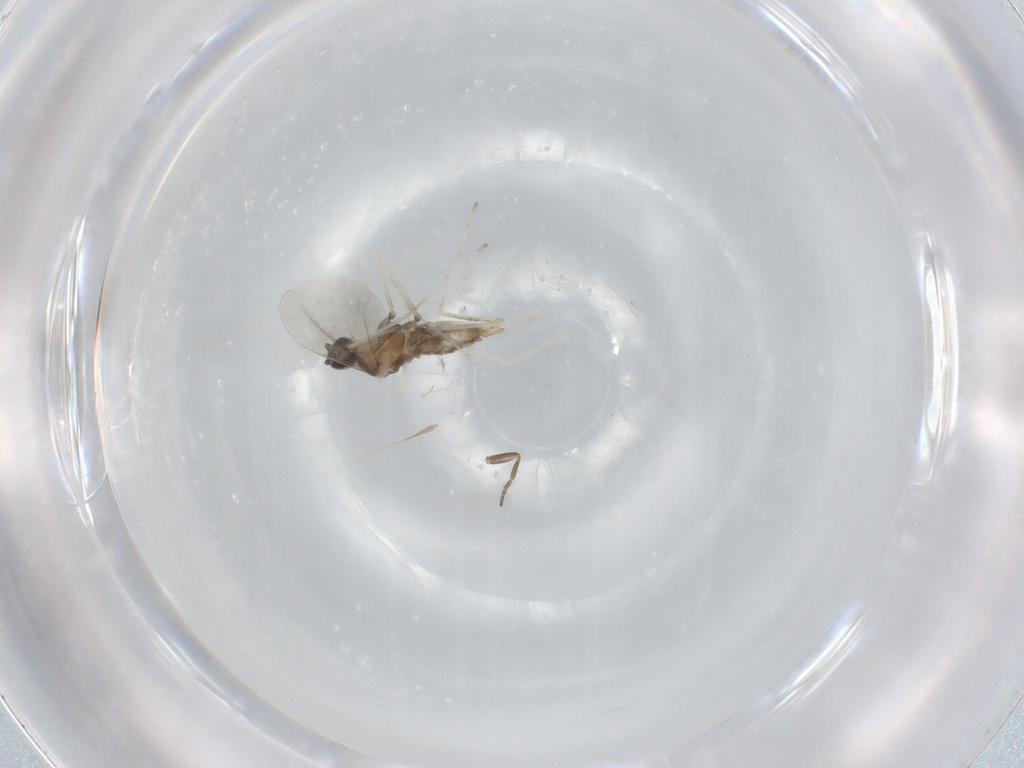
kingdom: Animalia
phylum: Arthropoda
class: Insecta
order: Diptera
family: Cecidomyiidae
